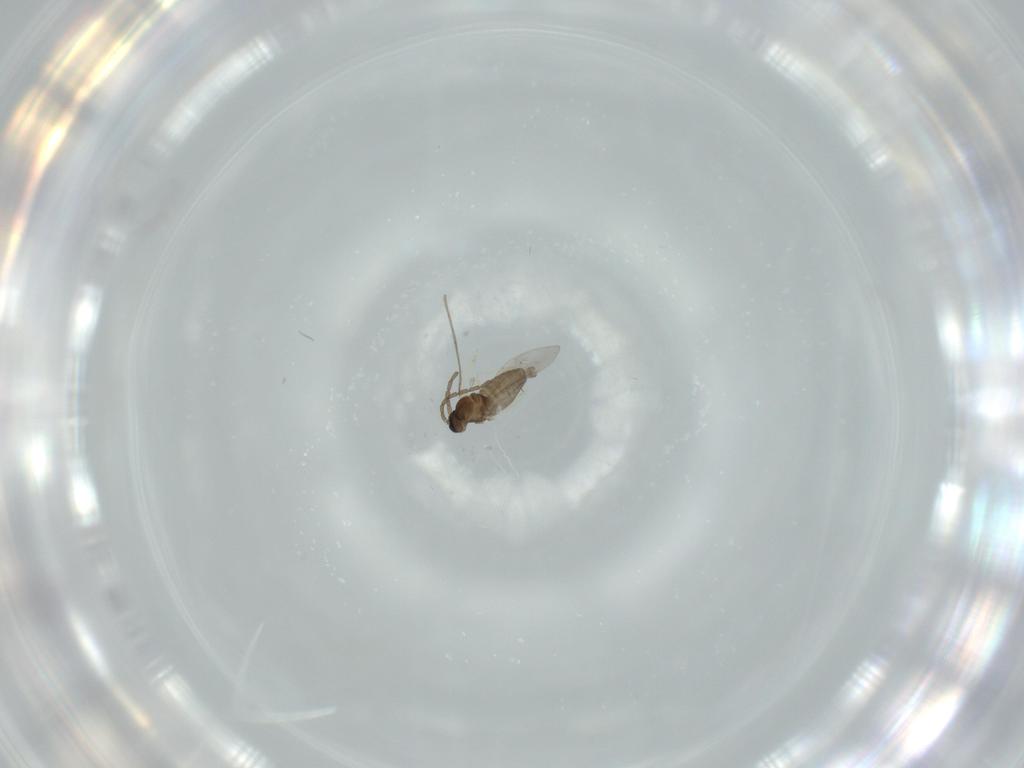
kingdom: Animalia
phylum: Arthropoda
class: Insecta
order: Diptera
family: Cecidomyiidae
